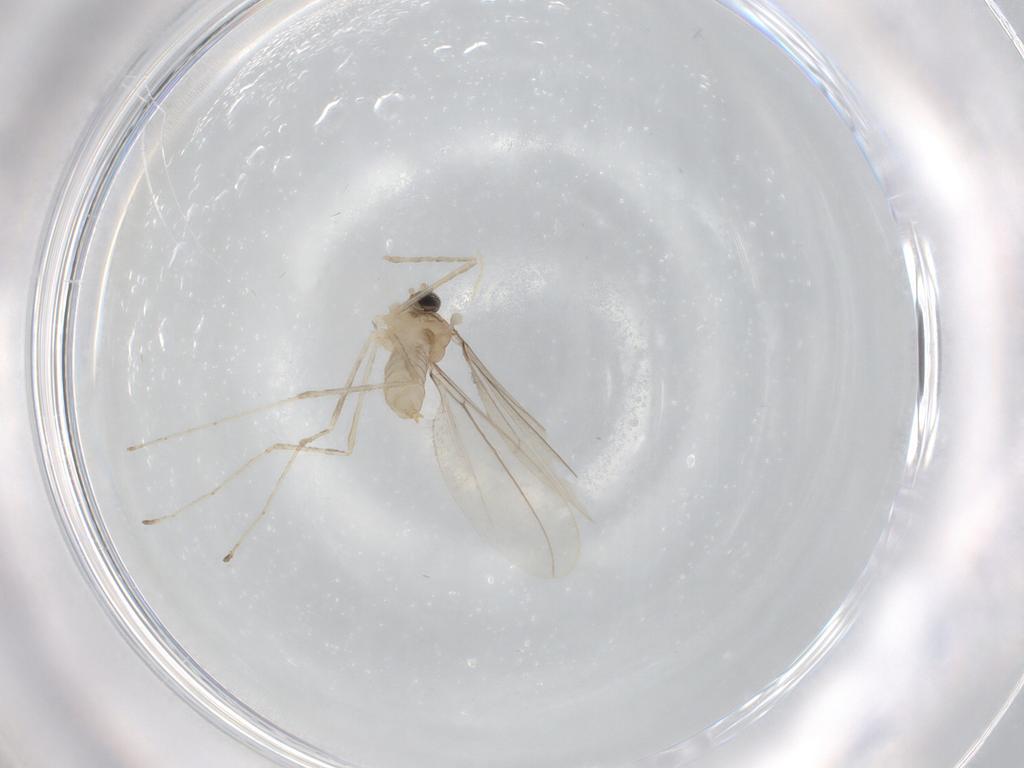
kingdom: Animalia
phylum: Arthropoda
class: Insecta
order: Diptera
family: Cecidomyiidae
